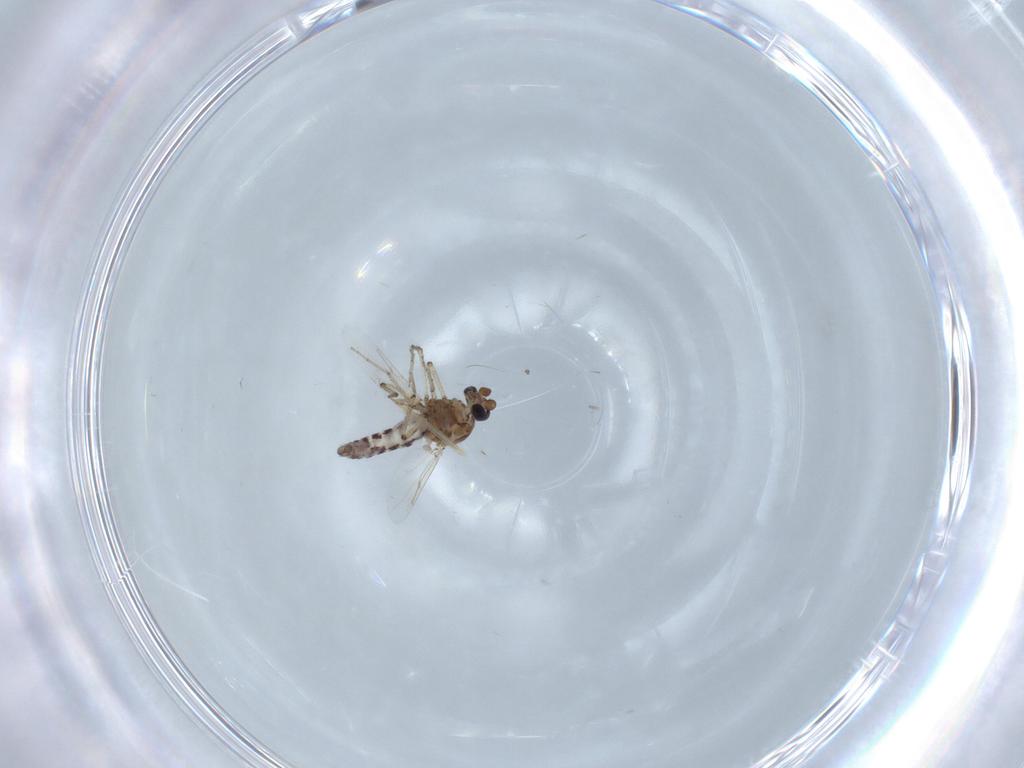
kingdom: Animalia
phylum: Arthropoda
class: Insecta
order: Diptera
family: Ceratopogonidae
